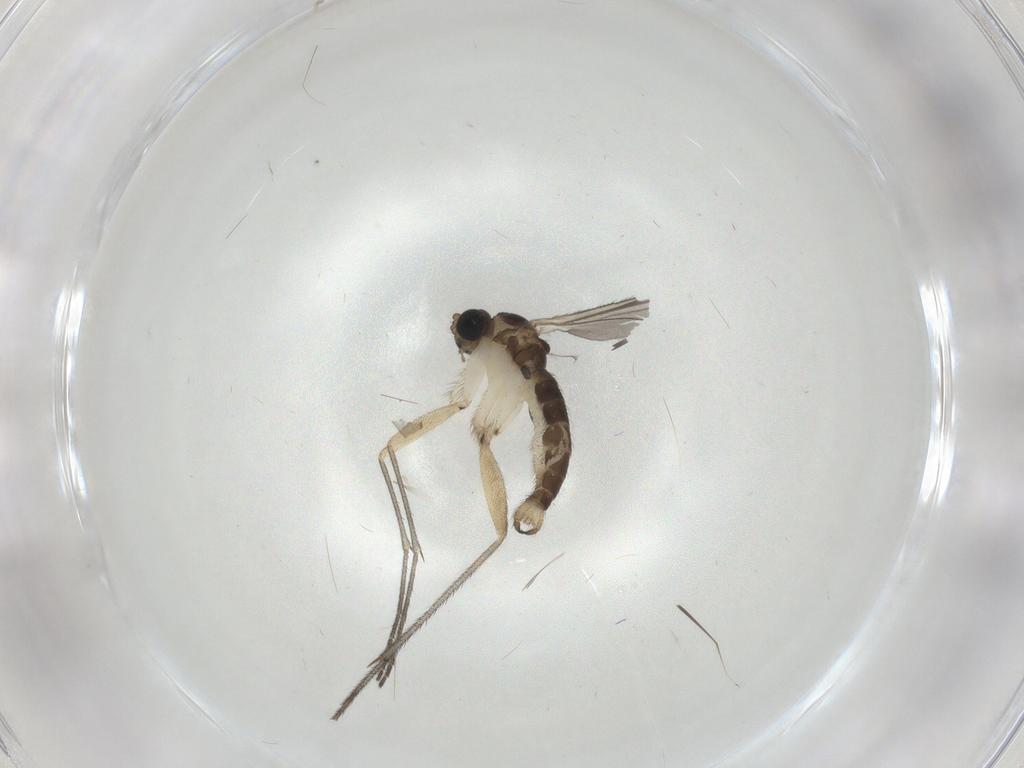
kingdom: Animalia
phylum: Arthropoda
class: Insecta
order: Diptera
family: Sciaridae
